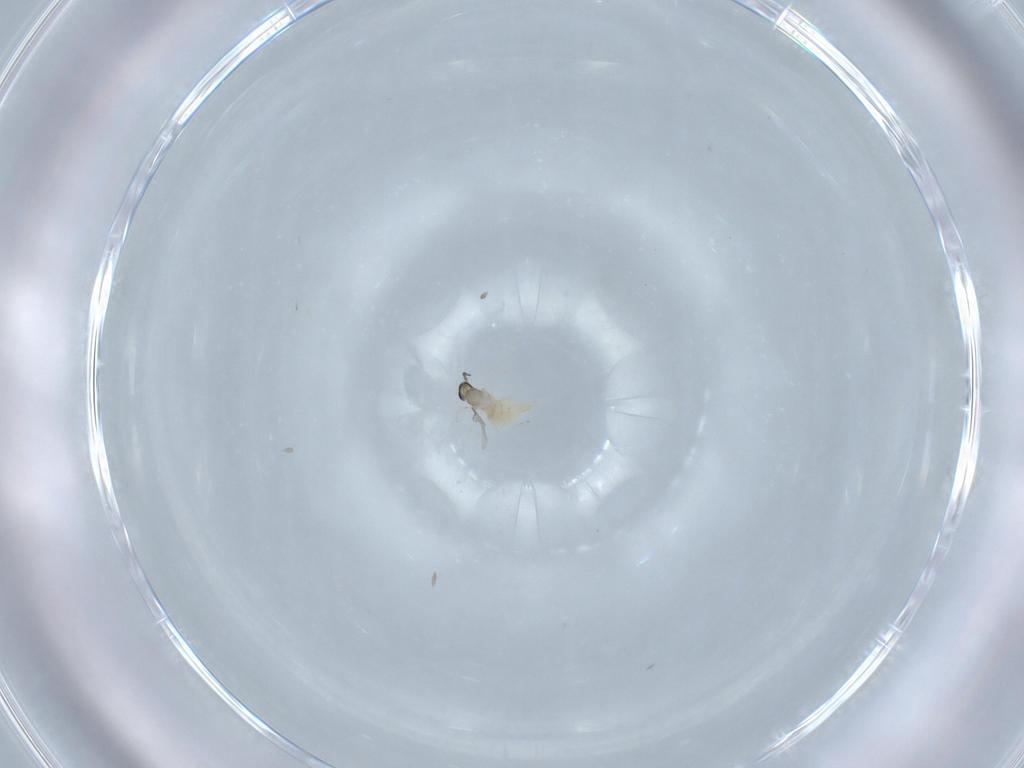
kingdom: Animalia
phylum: Arthropoda
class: Insecta
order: Diptera
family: Cecidomyiidae
